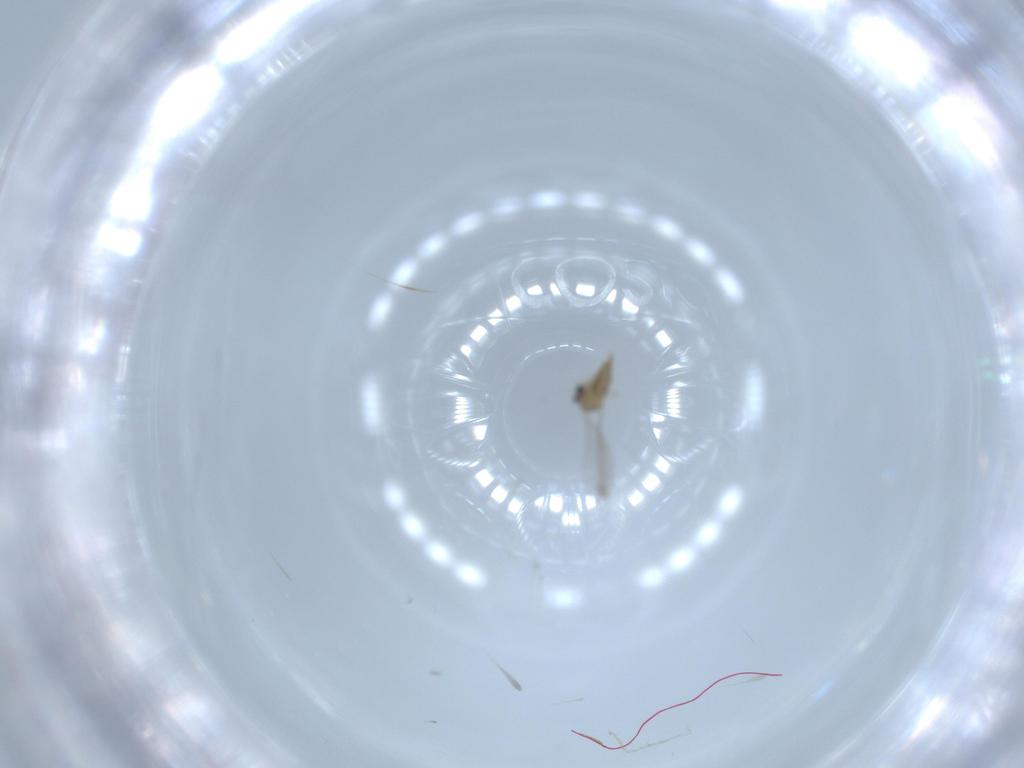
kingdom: Animalia
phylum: Arthropoda
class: Insecta
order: Diptera
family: Cecidomyiidae
